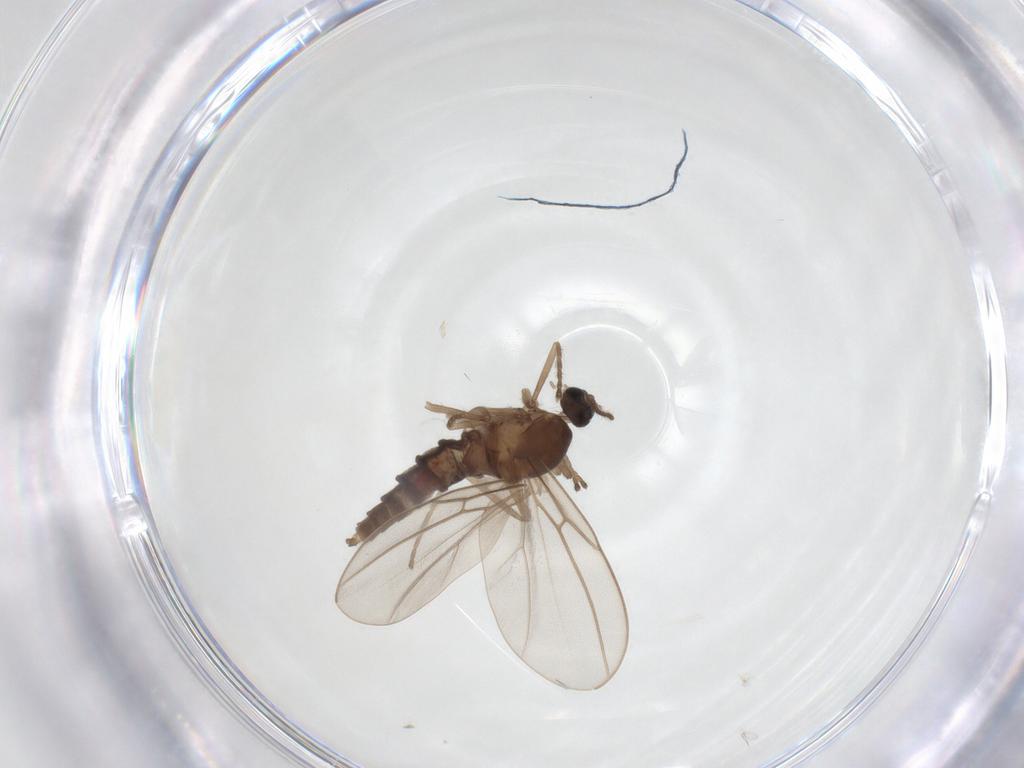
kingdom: Animalia
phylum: Arthropoda
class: Insecta
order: Diptera
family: Cecidomyiidae
